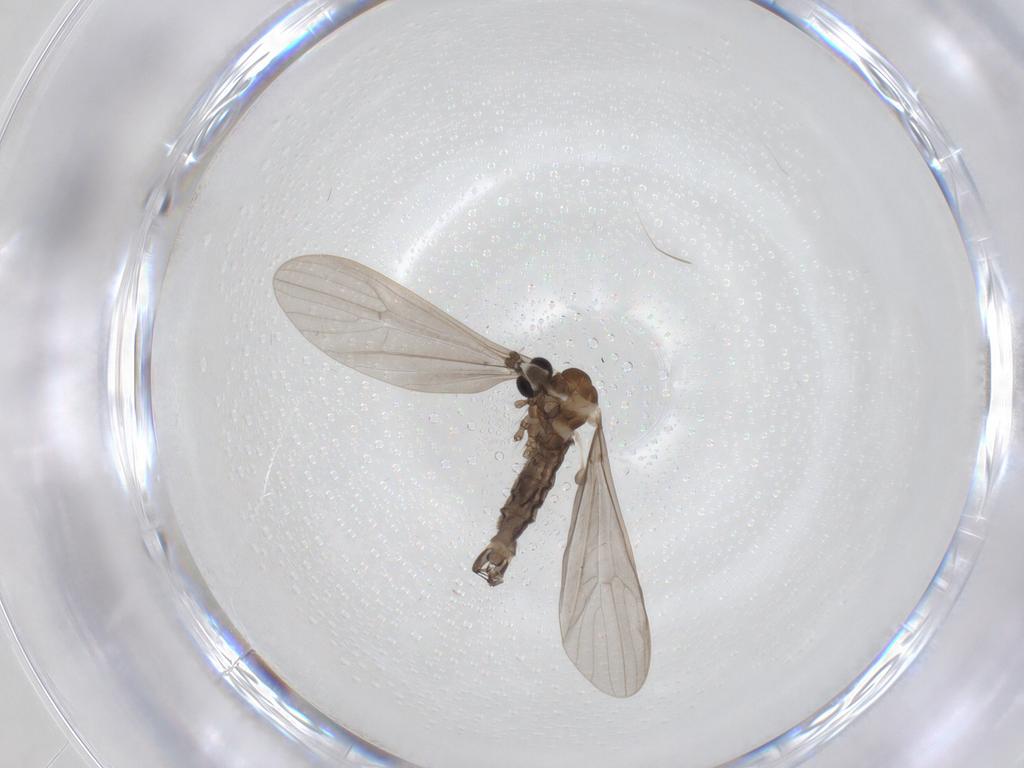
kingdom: Animalia
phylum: Arthropoda
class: Insecta
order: Diptera
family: Limoniidae
